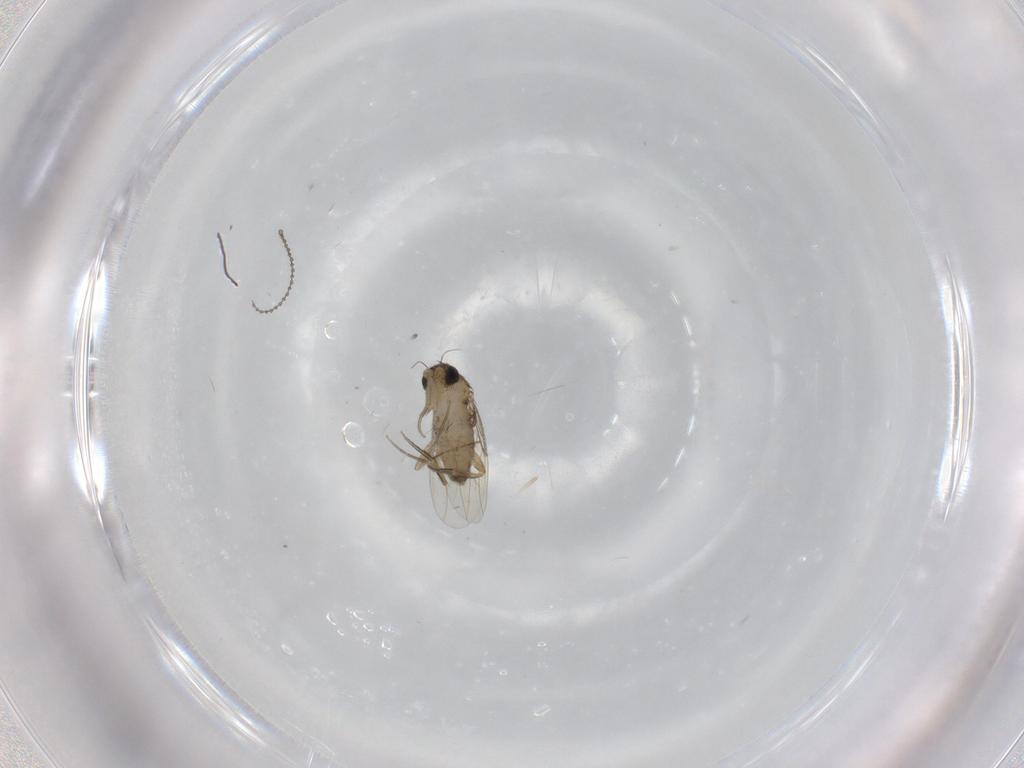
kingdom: Animalia
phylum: Arthropoda
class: Insecta
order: Diptera
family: Phoridae
